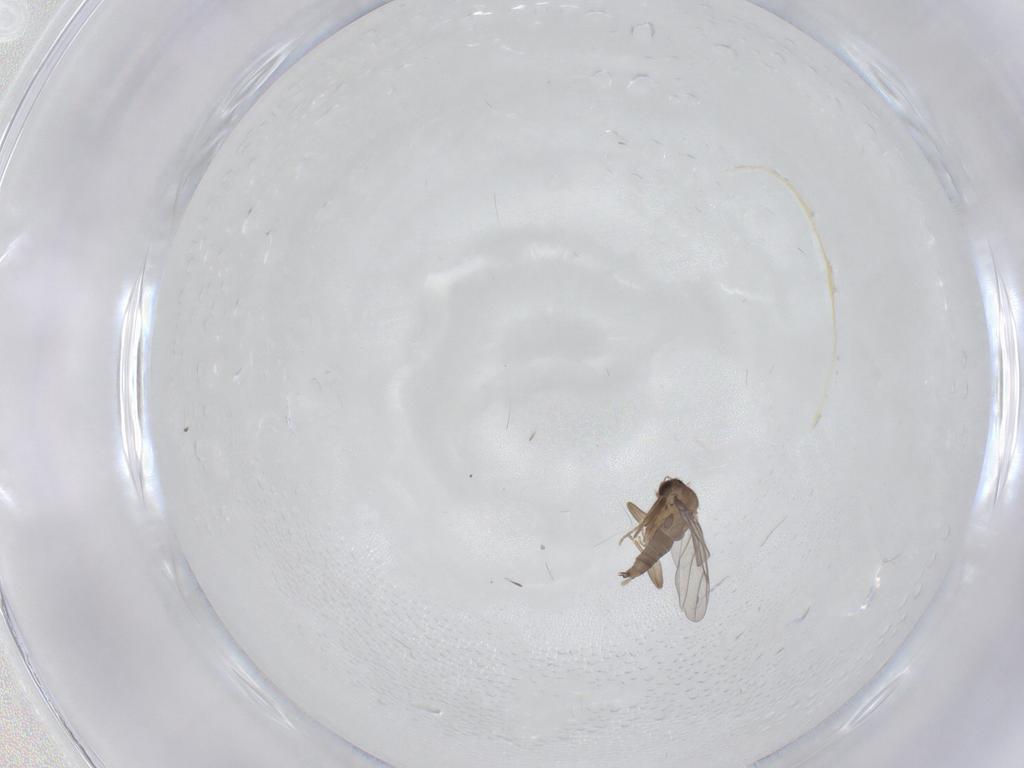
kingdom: Animalia
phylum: Arthropoda
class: Insecta
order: Diptera
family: Cecidomyiidae
